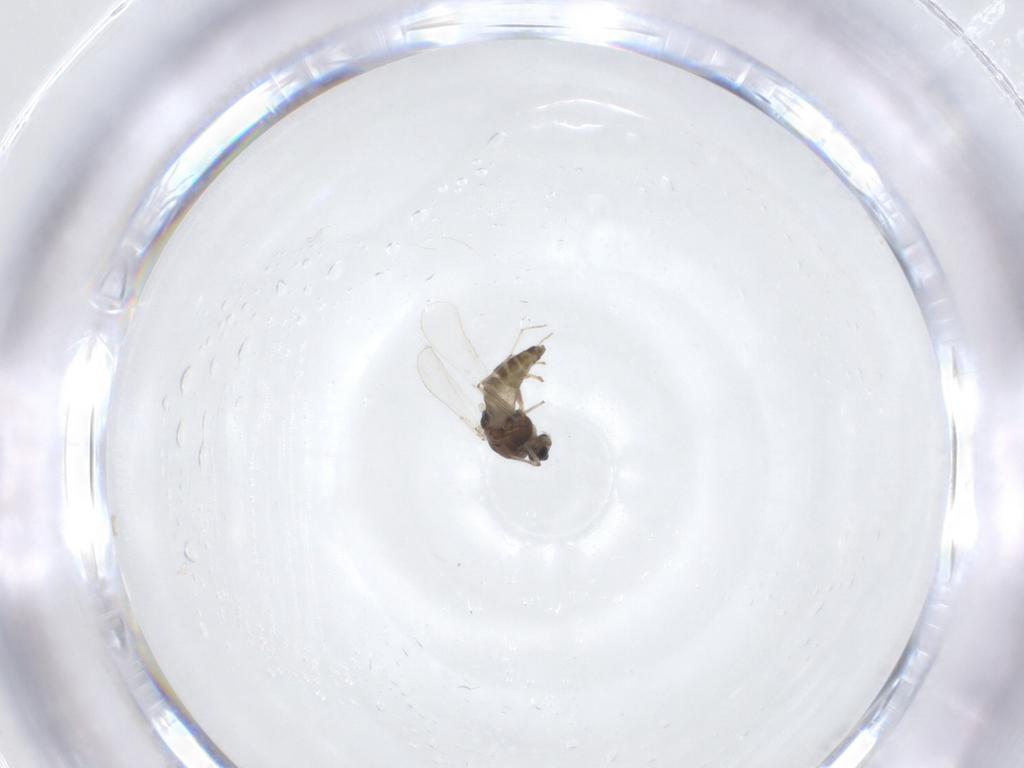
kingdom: Animalia
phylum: Arthropoda
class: Insecta
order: Diptera
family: Chironomidae
